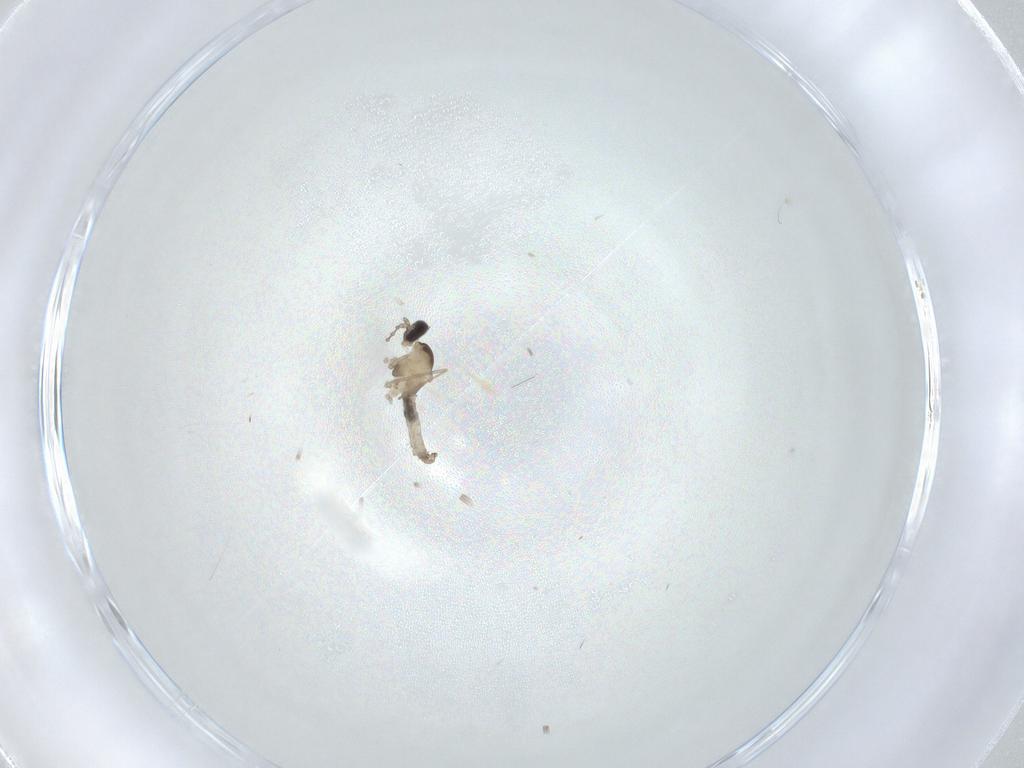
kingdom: Animalia
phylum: Arthropoda
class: Insecta
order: Diptera
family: Cecidomyiidae
